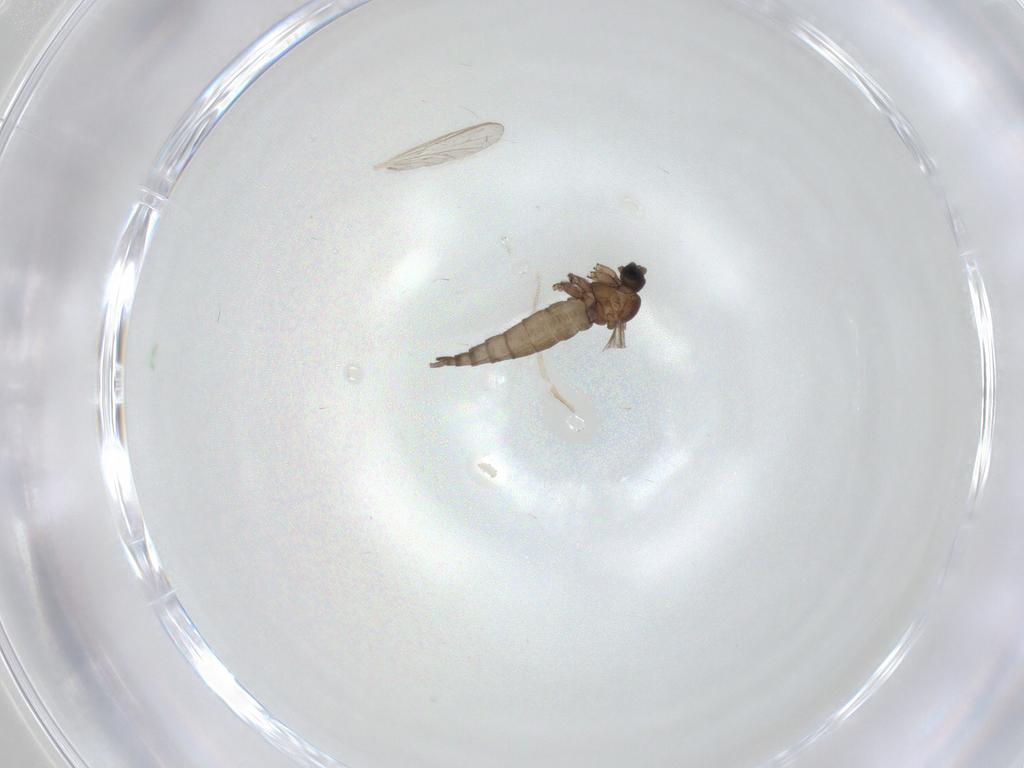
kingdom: Animalia
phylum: Arthropoda
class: Insecta
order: Diptera
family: Sciaridae
